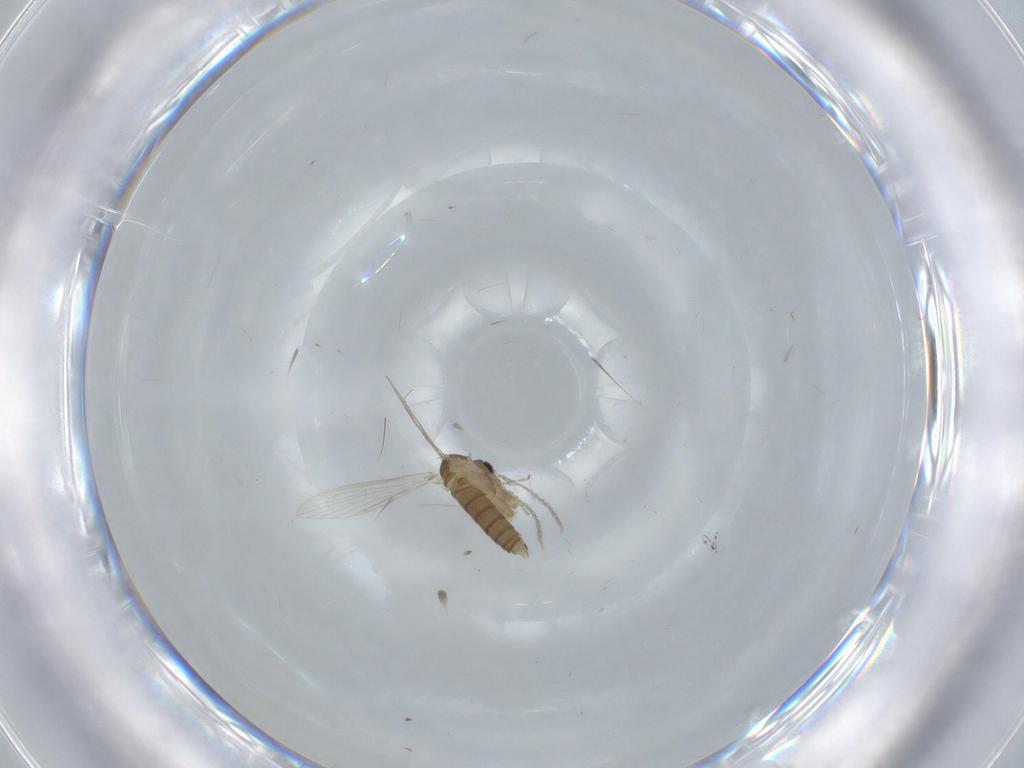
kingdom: Animalia
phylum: Arthropoda
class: Insecta
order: Diptera
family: Psychodidae
